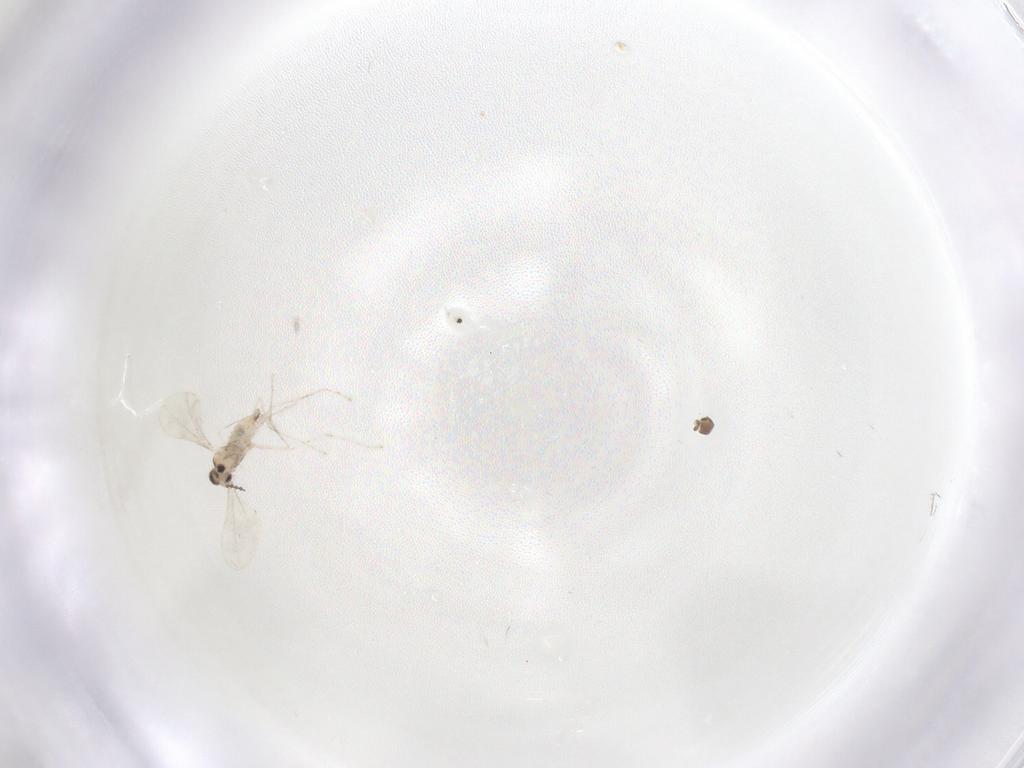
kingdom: Animalia
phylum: Arthropoda
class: Insecta
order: Diptera
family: Cecidomyiidae
